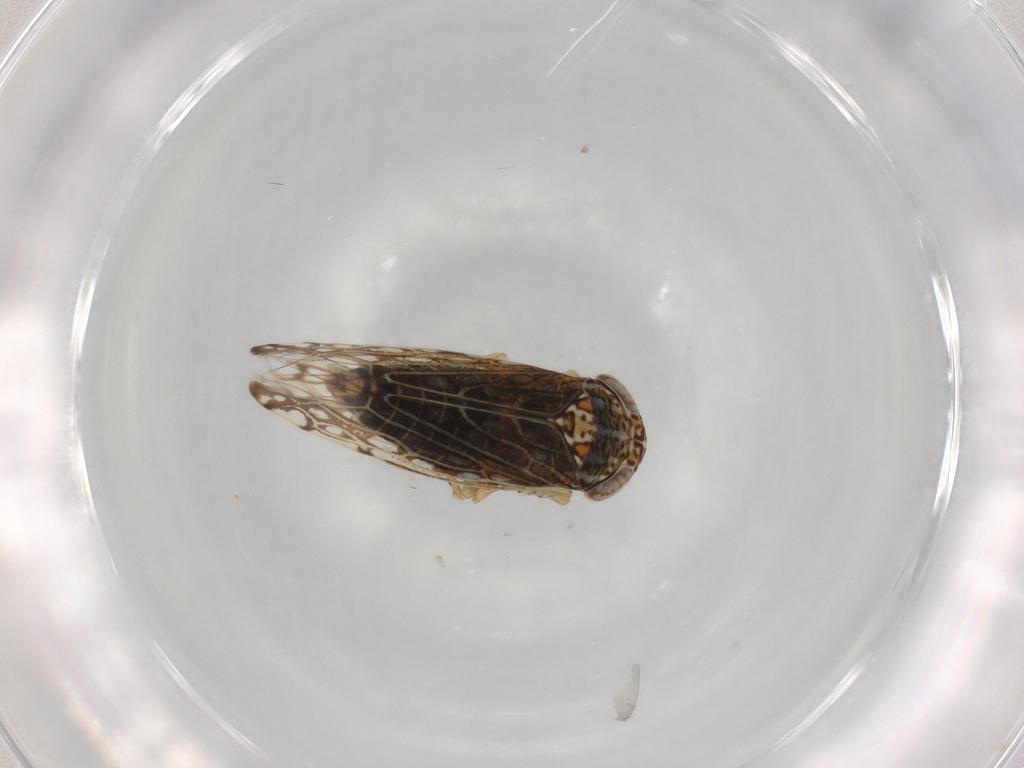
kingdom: Animalia
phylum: Arthropoda
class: Insecta
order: Hemiptera
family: Cicadellidae
